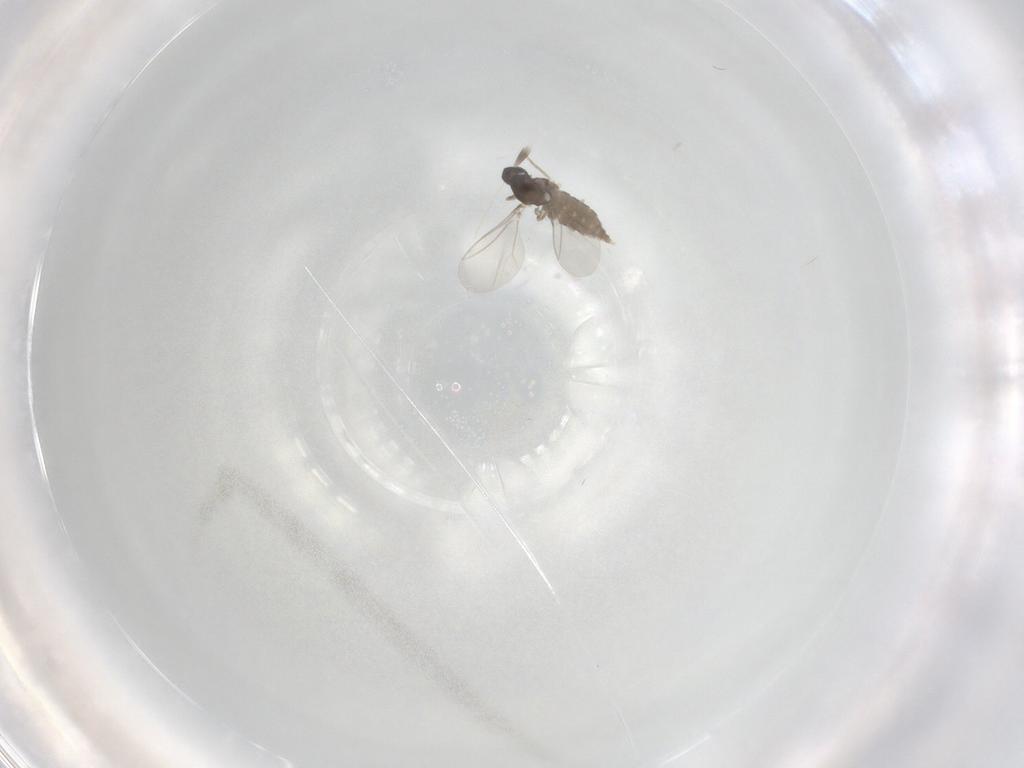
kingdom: Animalia
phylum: Arthropoda
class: Insecta
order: Diptera
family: Cecidomyiidae
